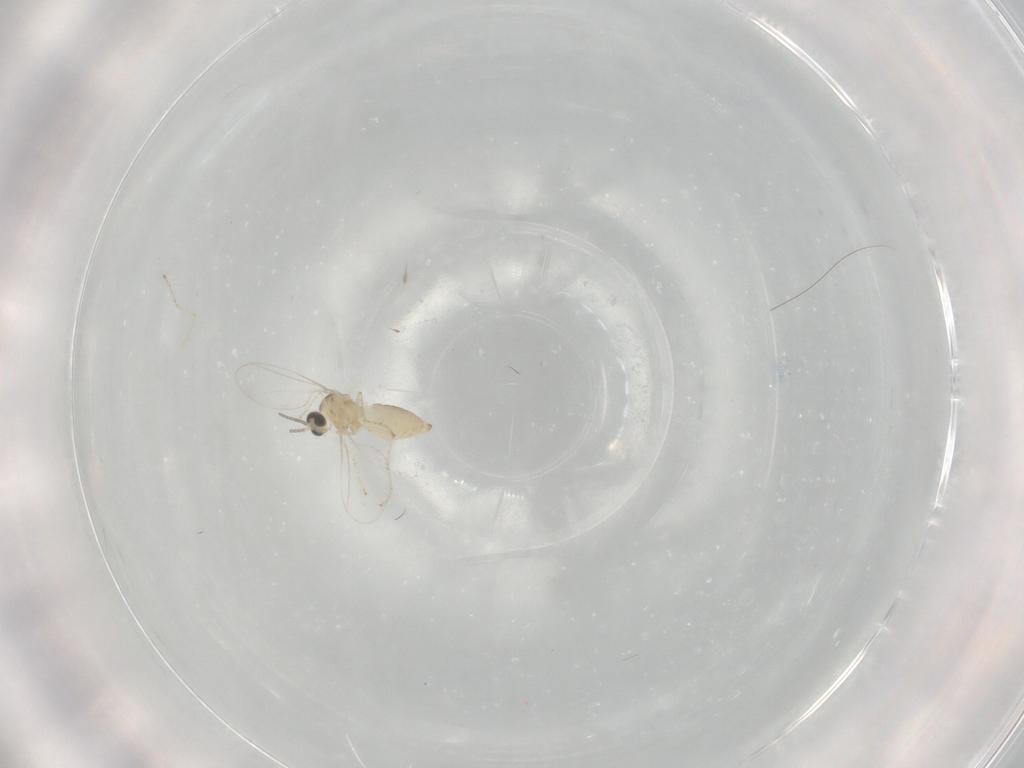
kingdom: Animalia
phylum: Arthropoda
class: Insecta
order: Diptera
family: Cecidomyiidae
